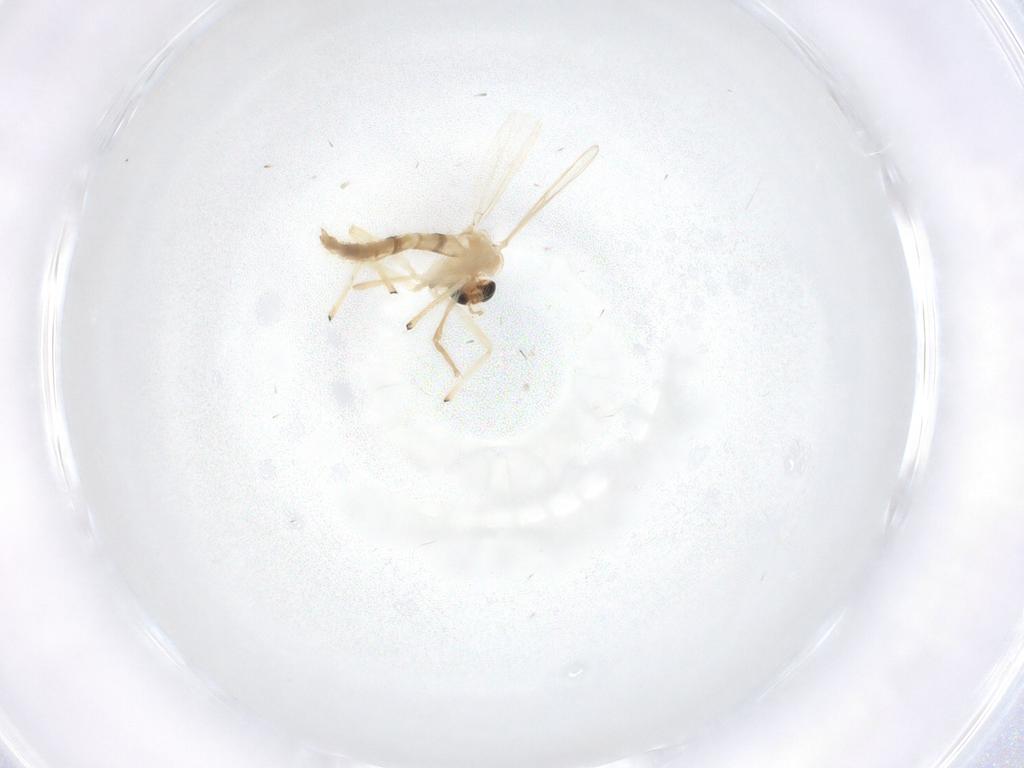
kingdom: Animalia
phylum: Arthropoda
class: Insecta
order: Diptera
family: Chironomidae
